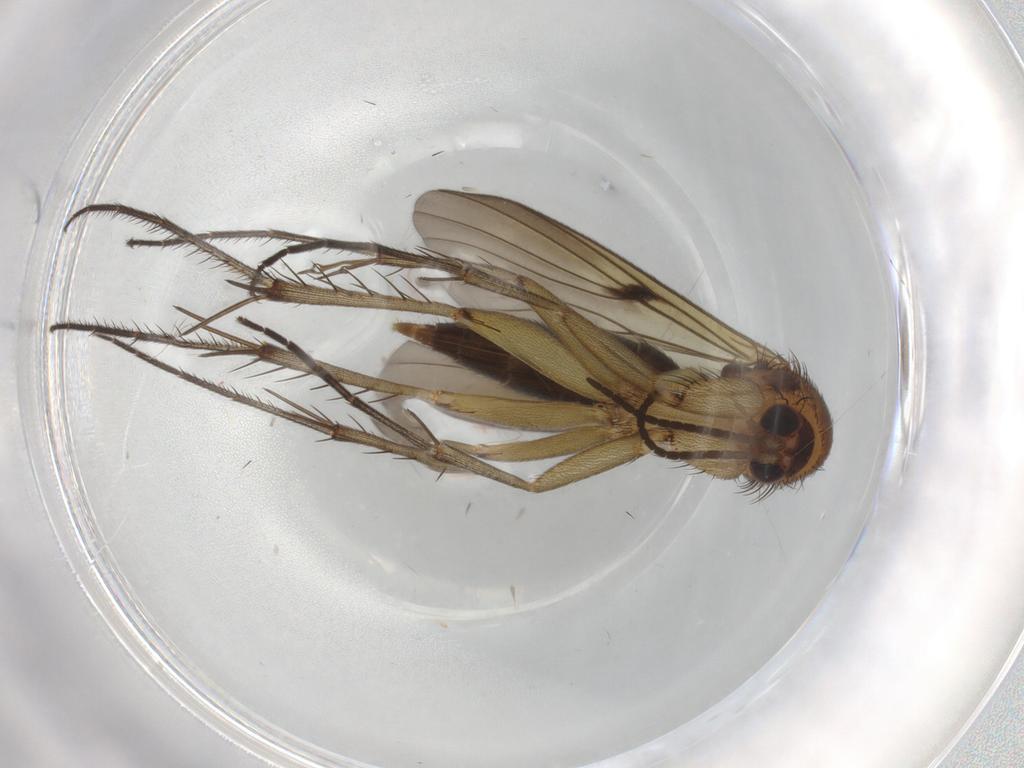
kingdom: Animalia
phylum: Arthropoda
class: Insecta
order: Diptera
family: Mycetophilidae
